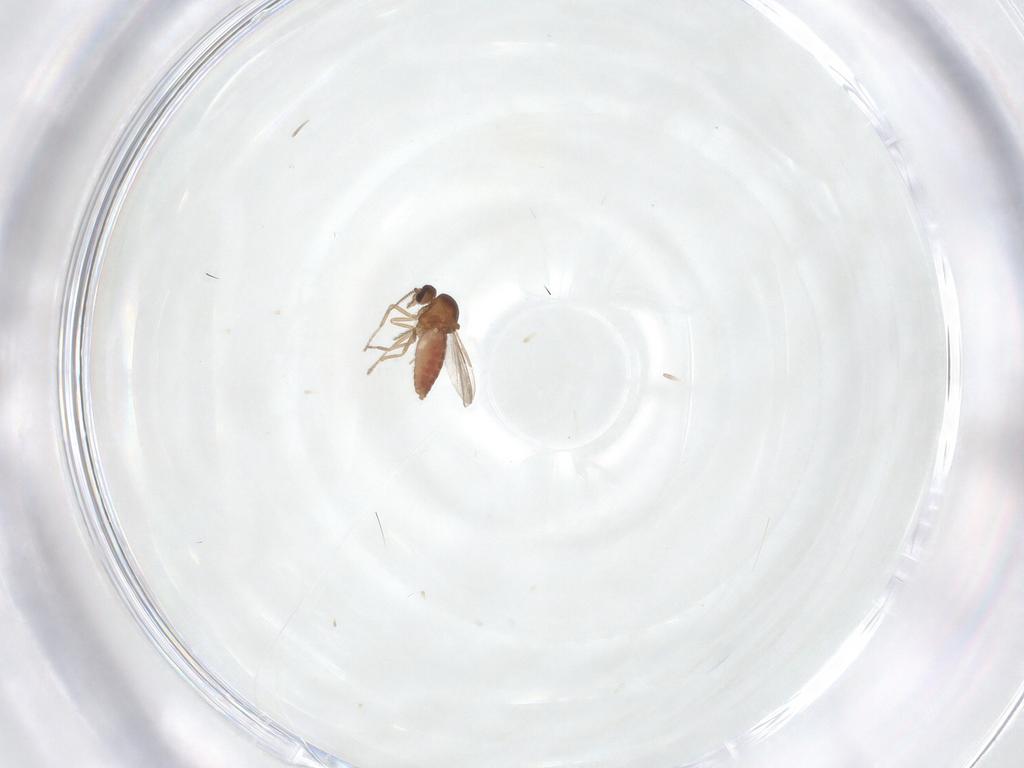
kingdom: Animalia
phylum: Arthropoda
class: Insecta
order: Diptera
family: Ceratopogonidae
